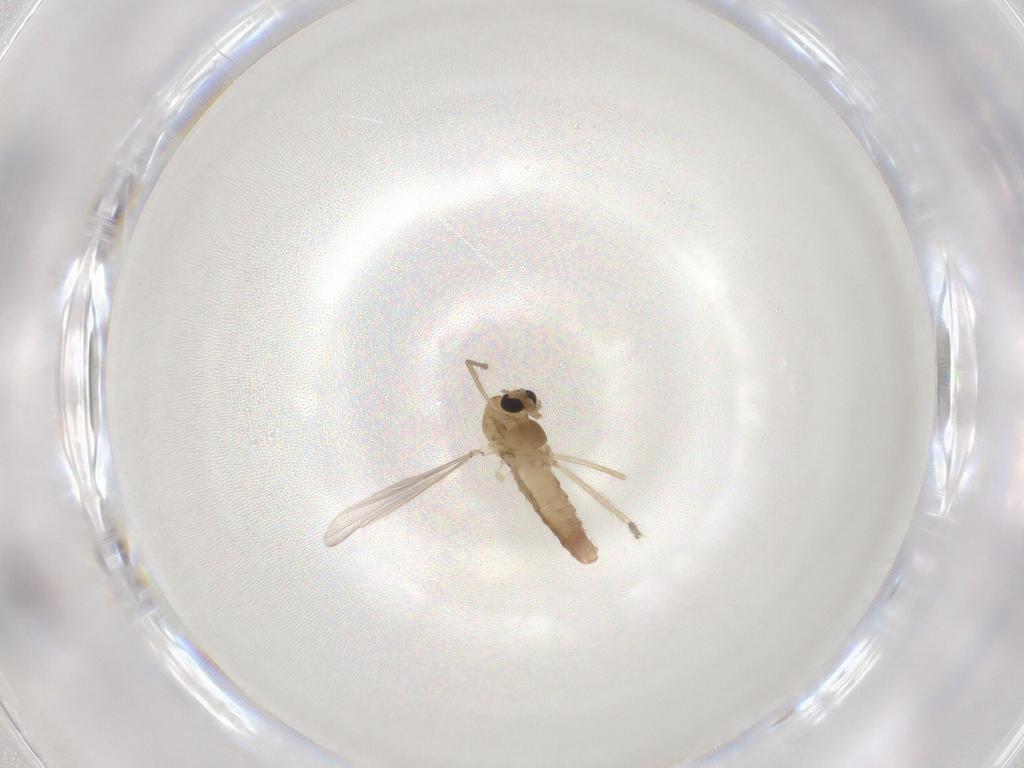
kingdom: Animalia
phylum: Arthropoda
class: Insecta
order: Diptera
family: Chironomidae
